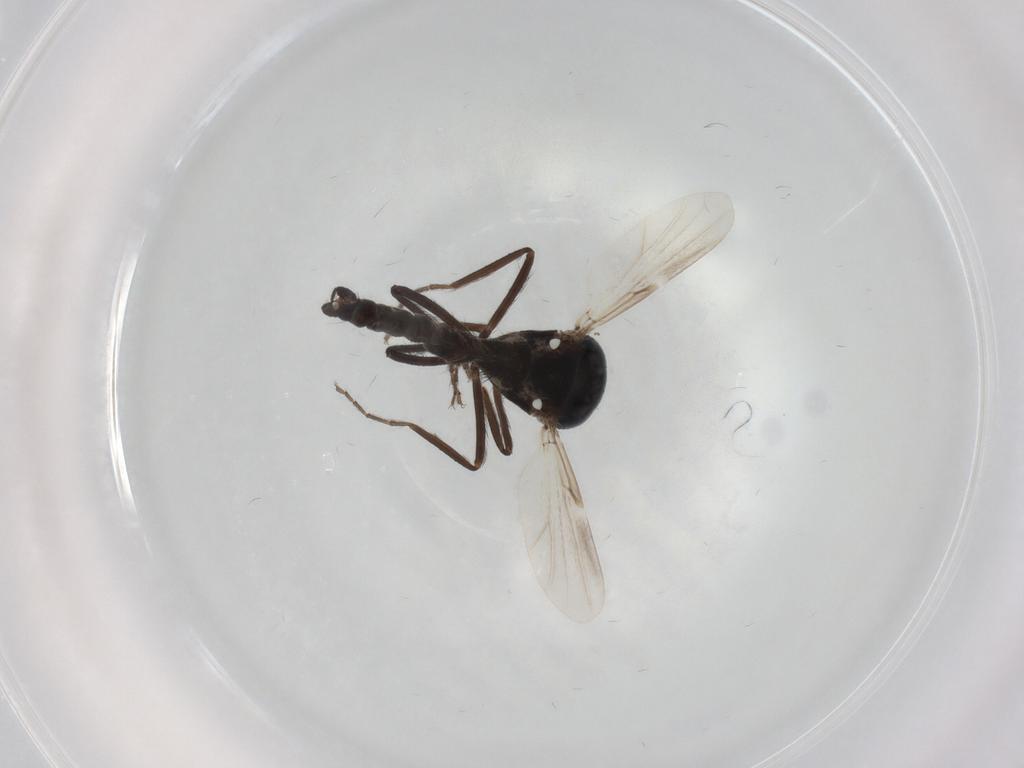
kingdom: Animalia
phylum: Arthropoda
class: Insecta
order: Diptera
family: Ceratopogonidae
